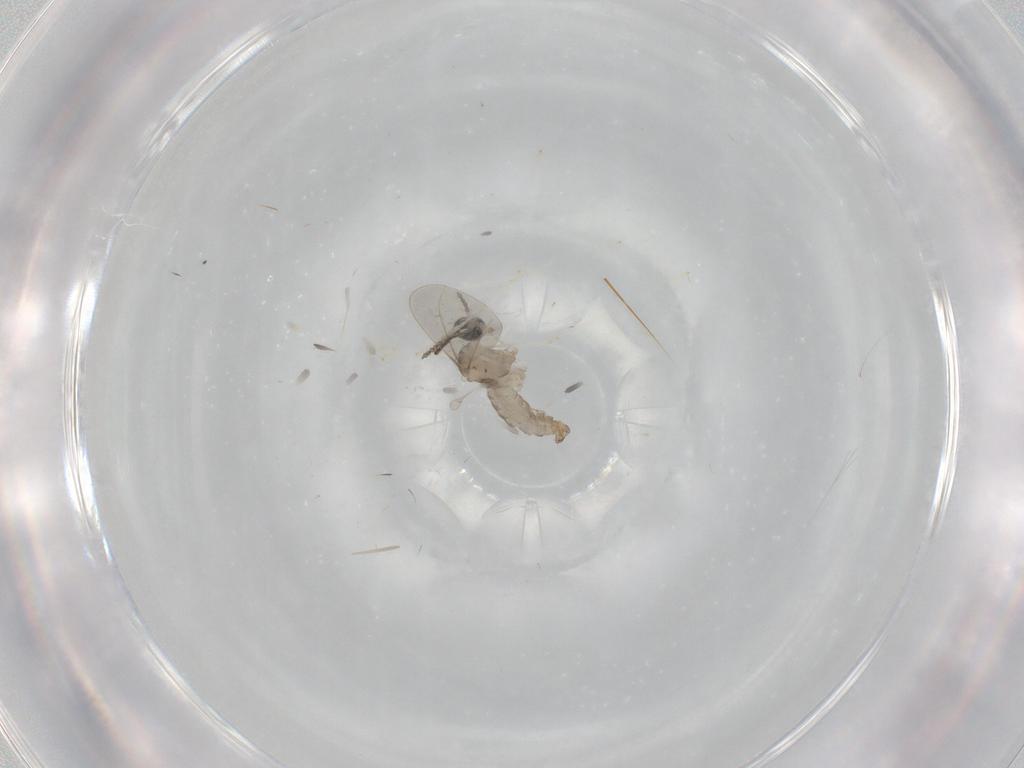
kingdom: Animalia
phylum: Arthropoda
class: Insecta
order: Diptera
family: Cecidomyiidae
